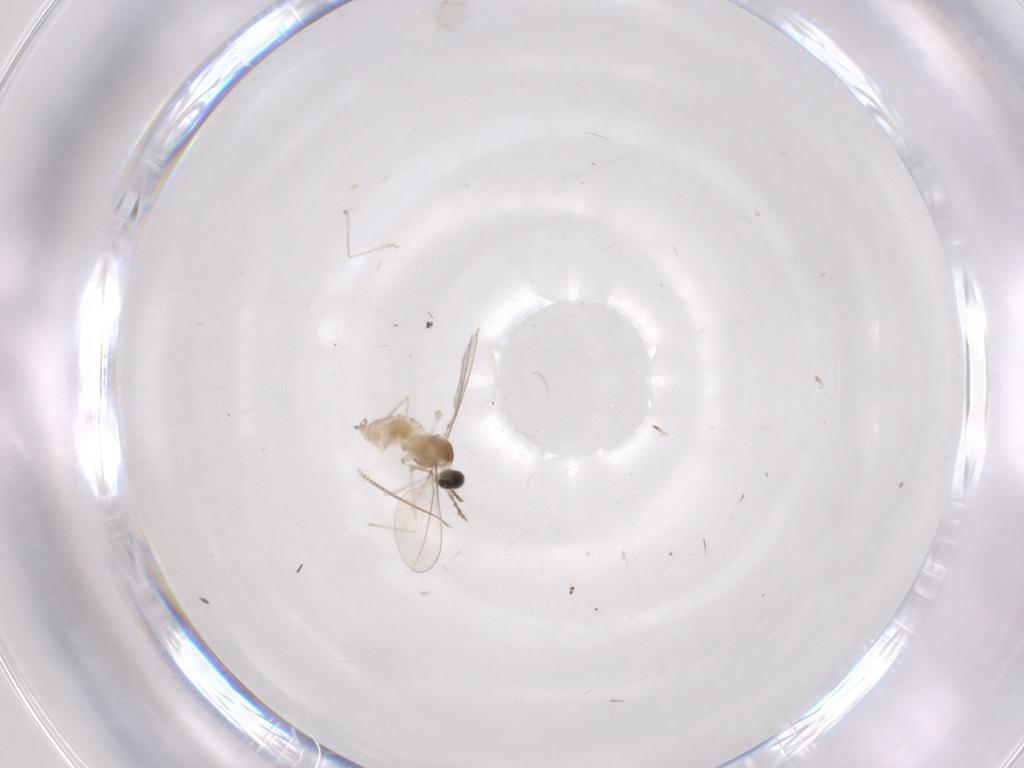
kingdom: Animalia
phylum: Arthropoda
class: Insecta
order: Diptera
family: Cecidomyiidae
